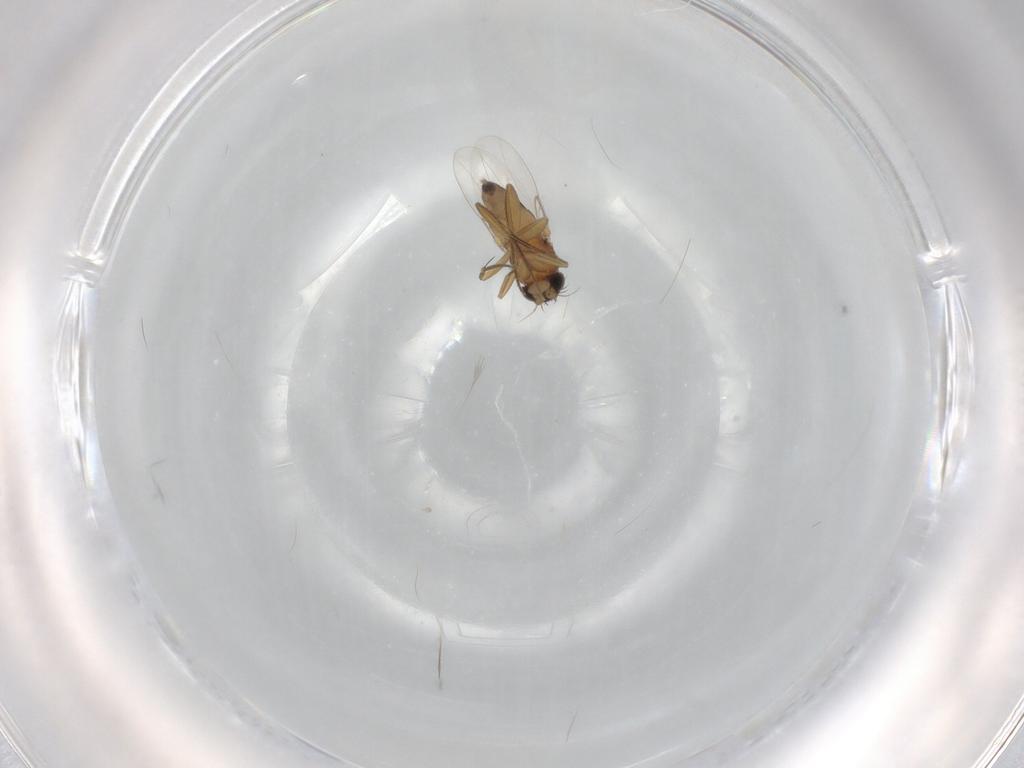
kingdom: Animalia
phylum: Arthropoda
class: Insecta
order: Diptera
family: Phoridae
